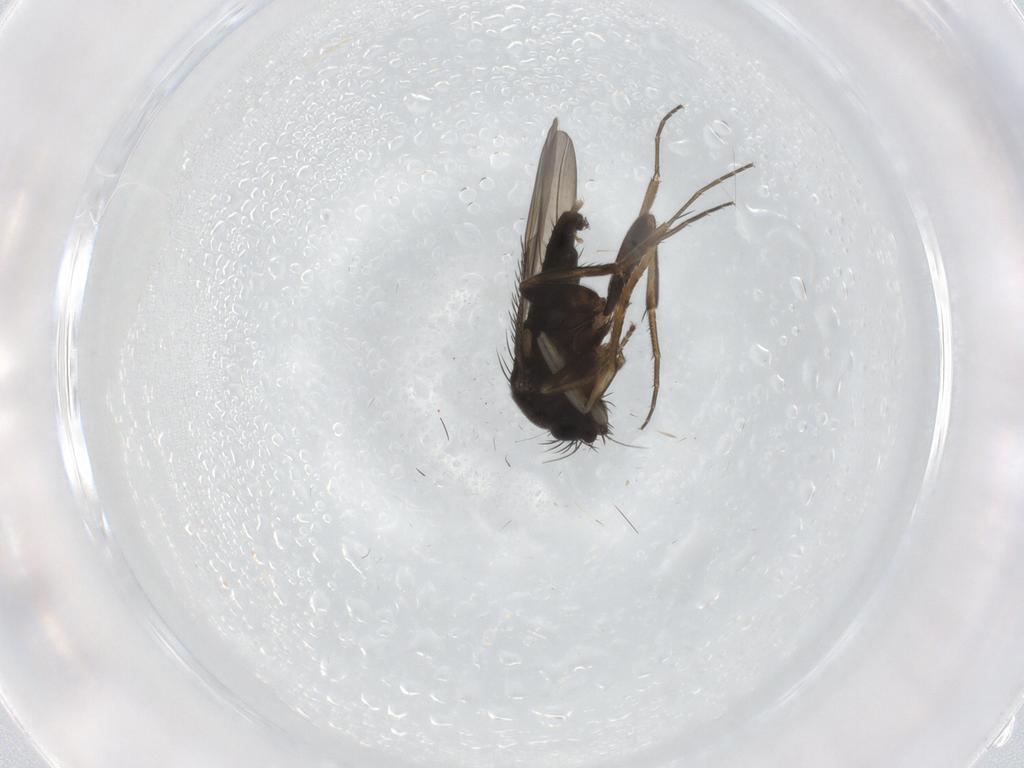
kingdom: Animalia
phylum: Arthropoda
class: Insecta
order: Diptera
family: Phoridae
